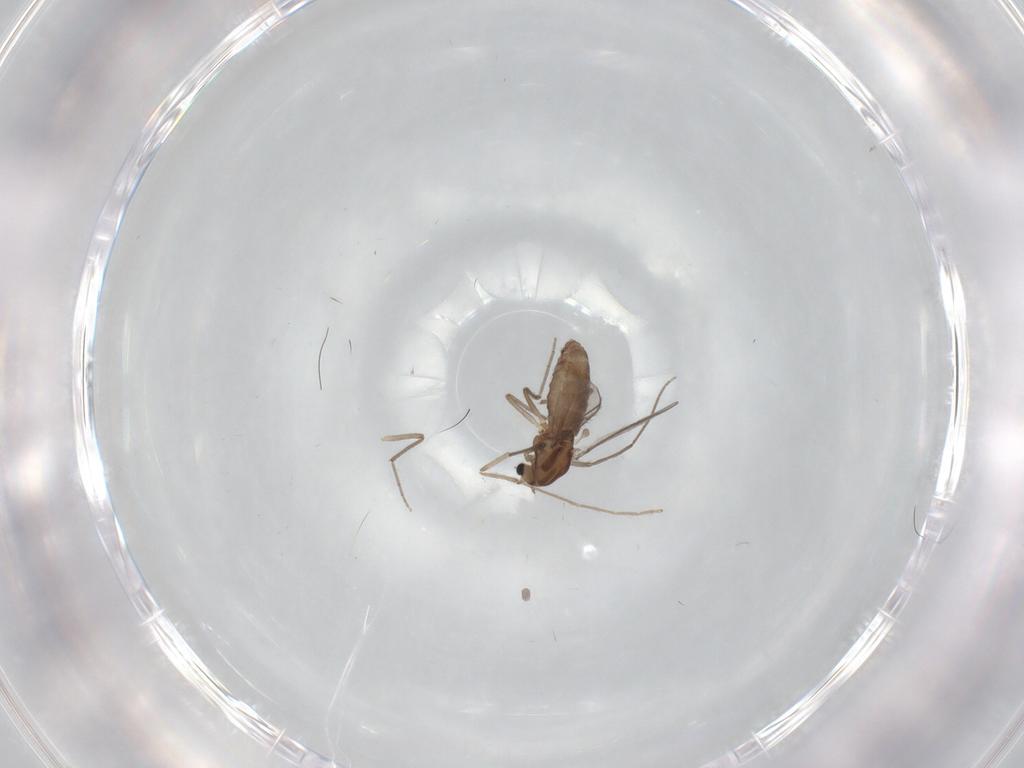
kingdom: Animalia
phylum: Arthropoda
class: Insecta
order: Diptera
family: Chironomidae
